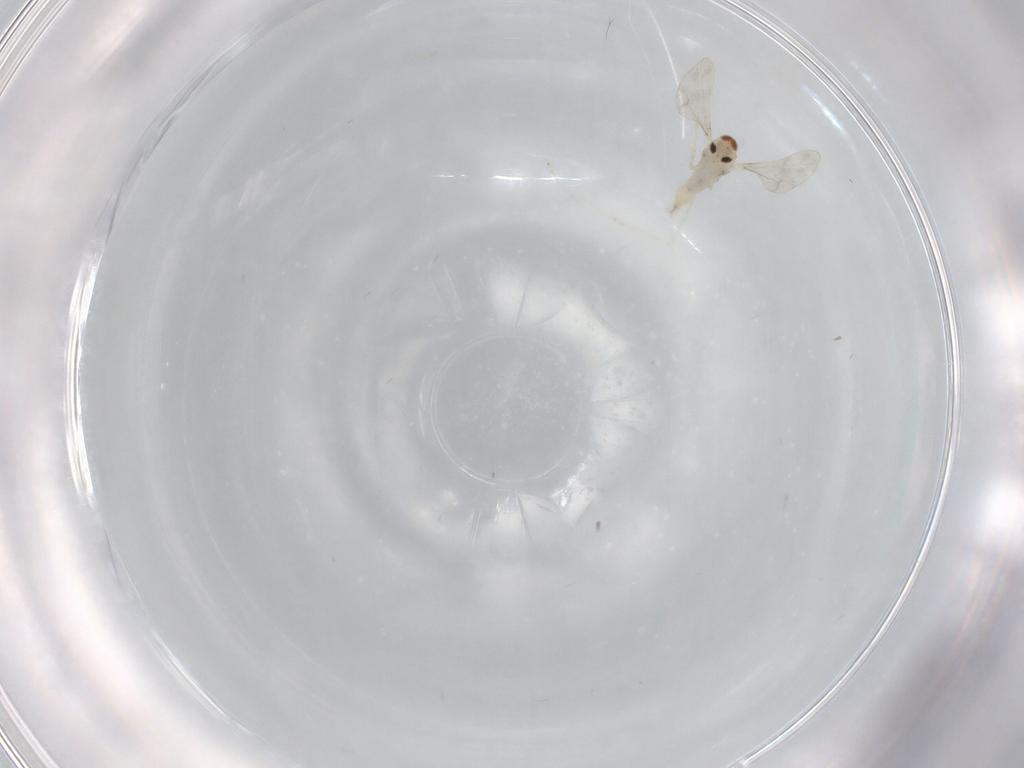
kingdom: Animalia
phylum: Arthropoda
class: Insecta
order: Diptera
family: Cecidomyiidae
